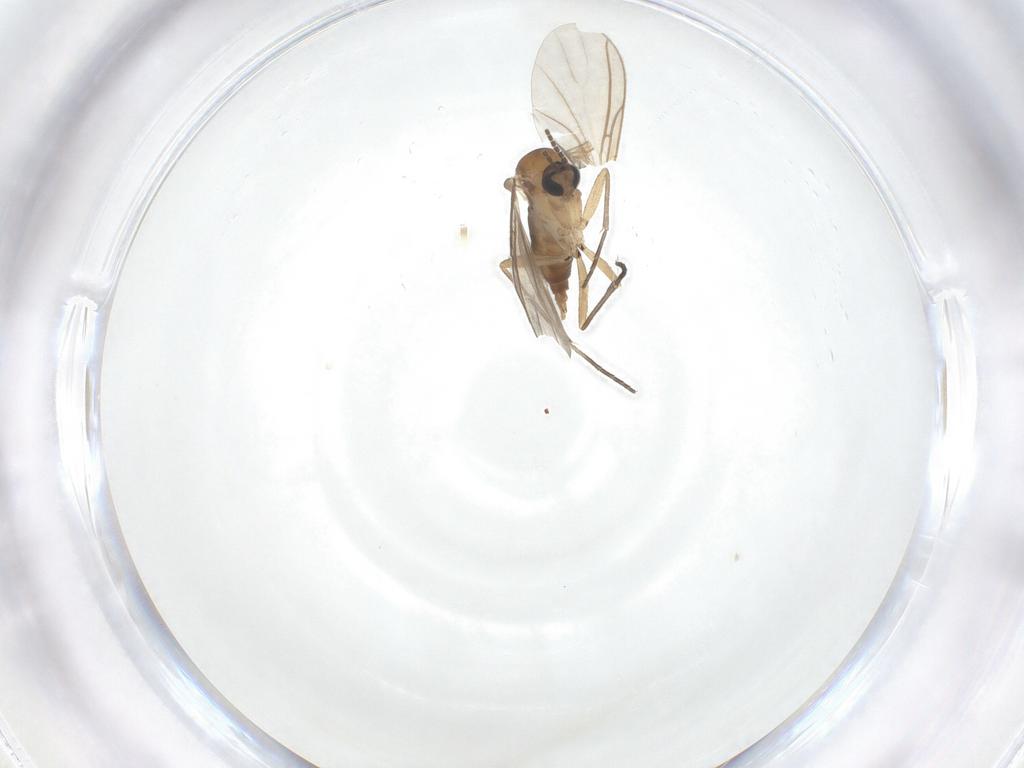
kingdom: Animalia
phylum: Arthropoda
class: Insecta
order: Diptera
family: Sciaridae
